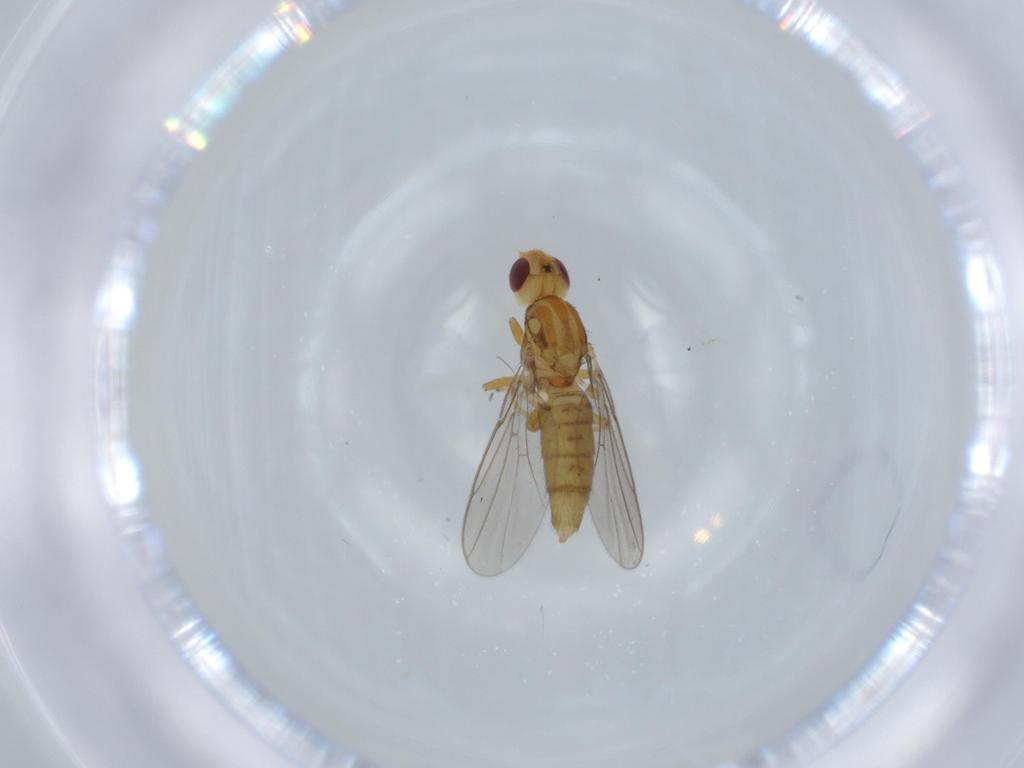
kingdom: Animalia
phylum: Arthropoda
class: Insecta
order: Diptera
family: Chloropidae
